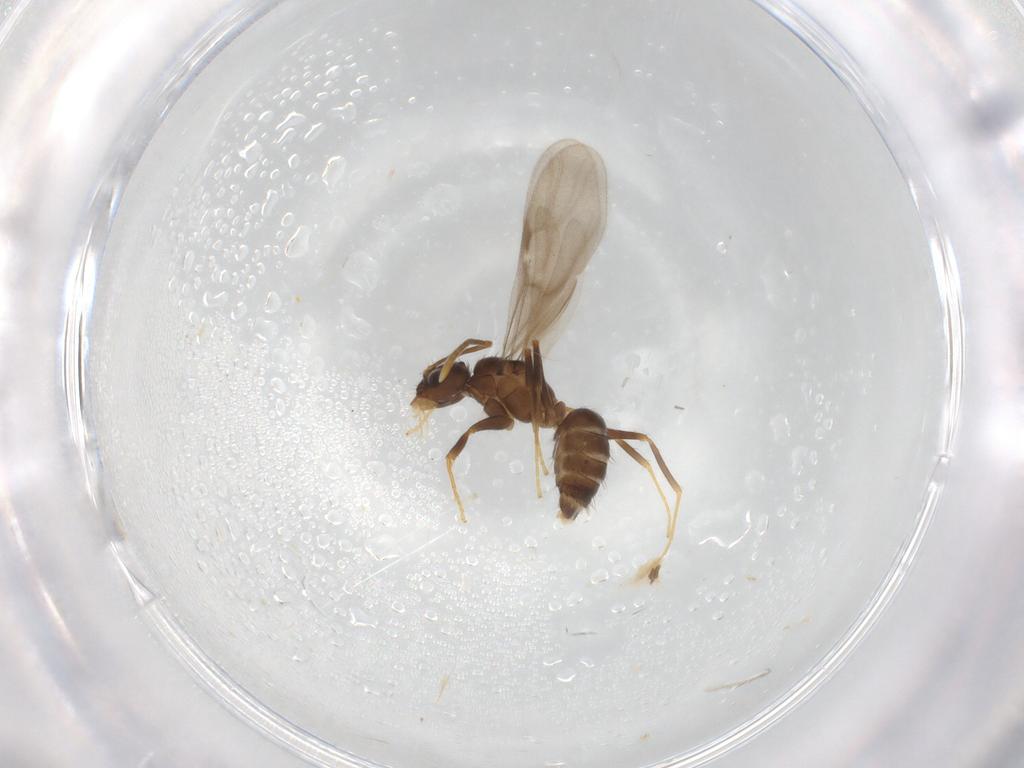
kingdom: Animalia
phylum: Arthropoda
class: Insecta
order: Hymenoptera
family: Formicidae
